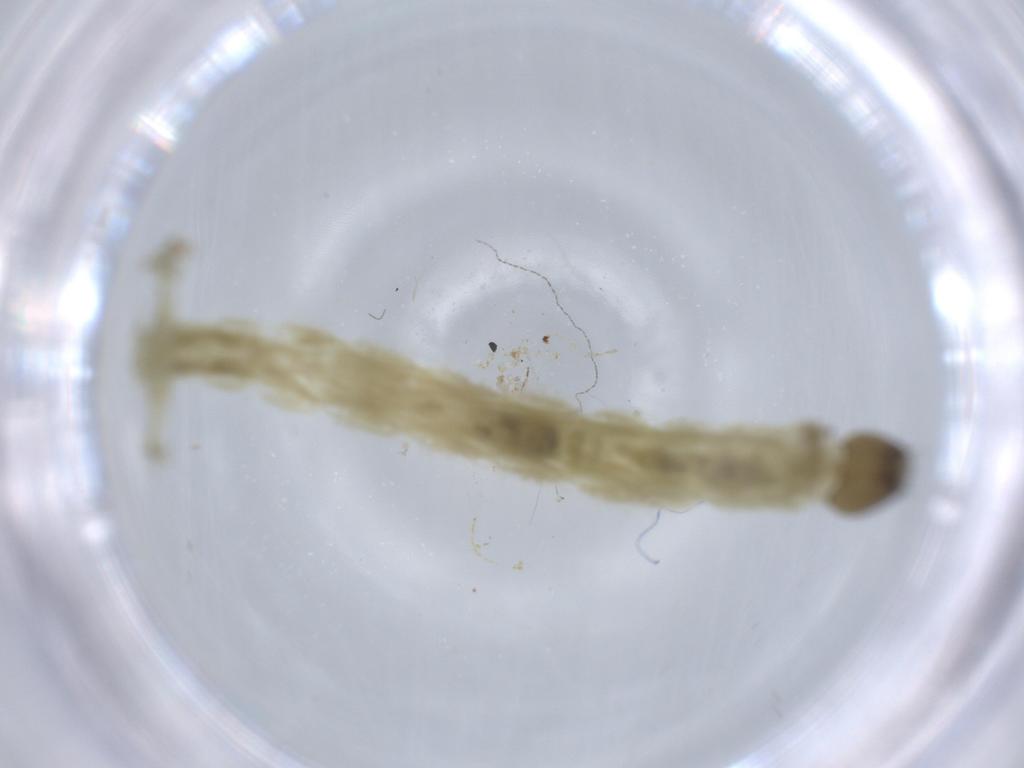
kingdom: Animalia
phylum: Arthropoda
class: Insecta
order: Diptera
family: Chironomidae
